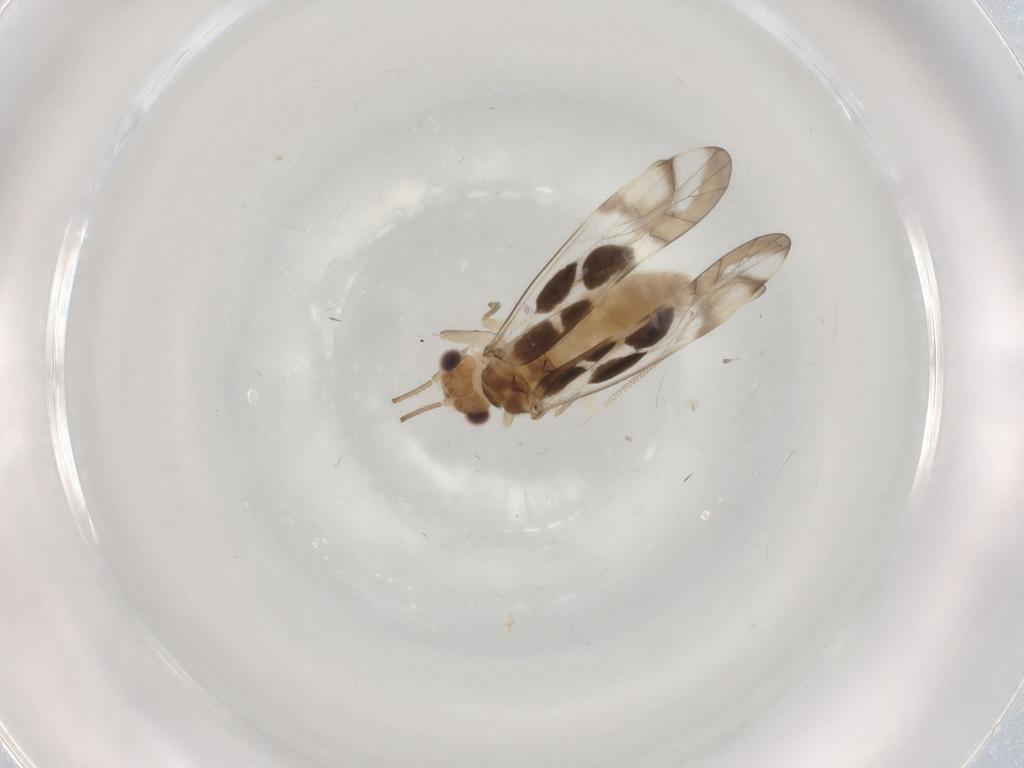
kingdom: Animalia
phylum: Arthropoda
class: Insecta
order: Psocodea
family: Stenopsocidae
